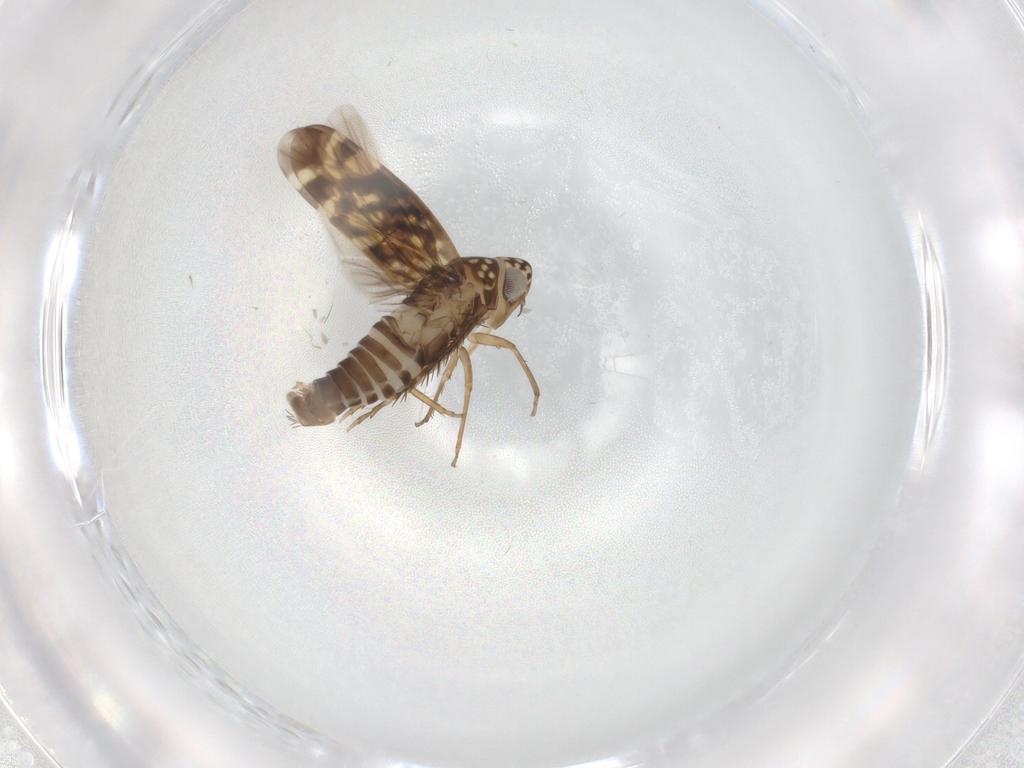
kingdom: Animalia
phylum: Arthropoda
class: Insecta
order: Hemiptera
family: Cicadellidae
